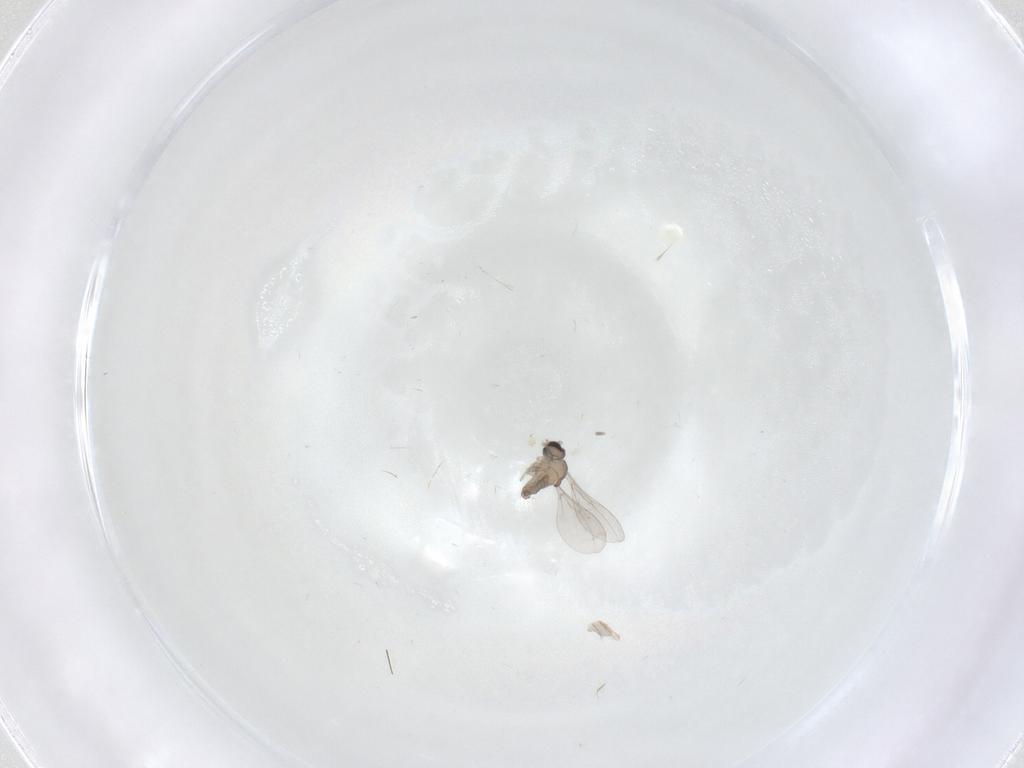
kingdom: Animalia
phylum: Arthropoda
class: Insecta
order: Diptera
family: Cecidomyiidae
